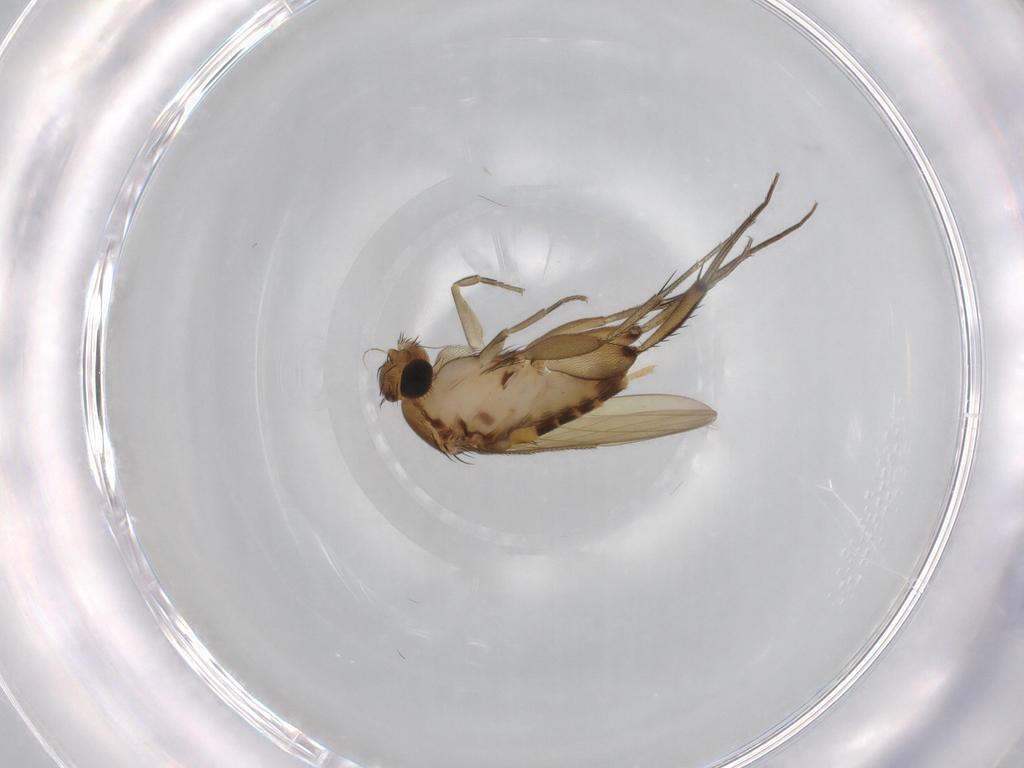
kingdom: Animalia
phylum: Arthropoda
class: Insecta
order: Diptera
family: Phoridae
